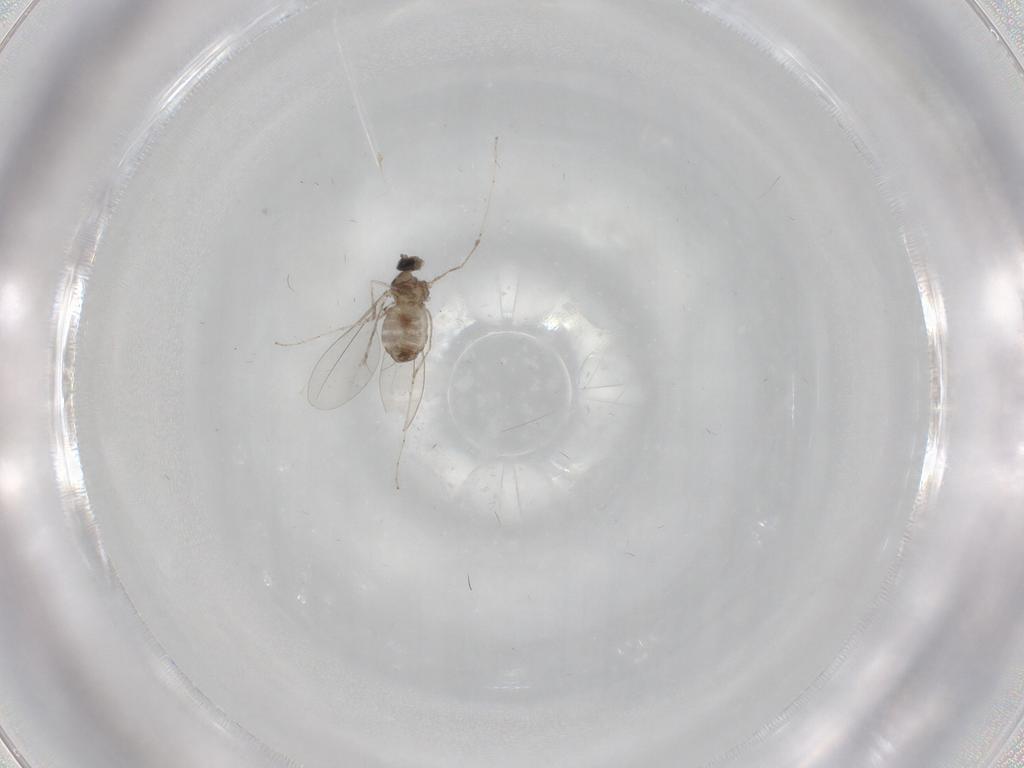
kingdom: Animalia
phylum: Arthropoda
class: Insecta
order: Diptera
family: Cecidomyiidae
